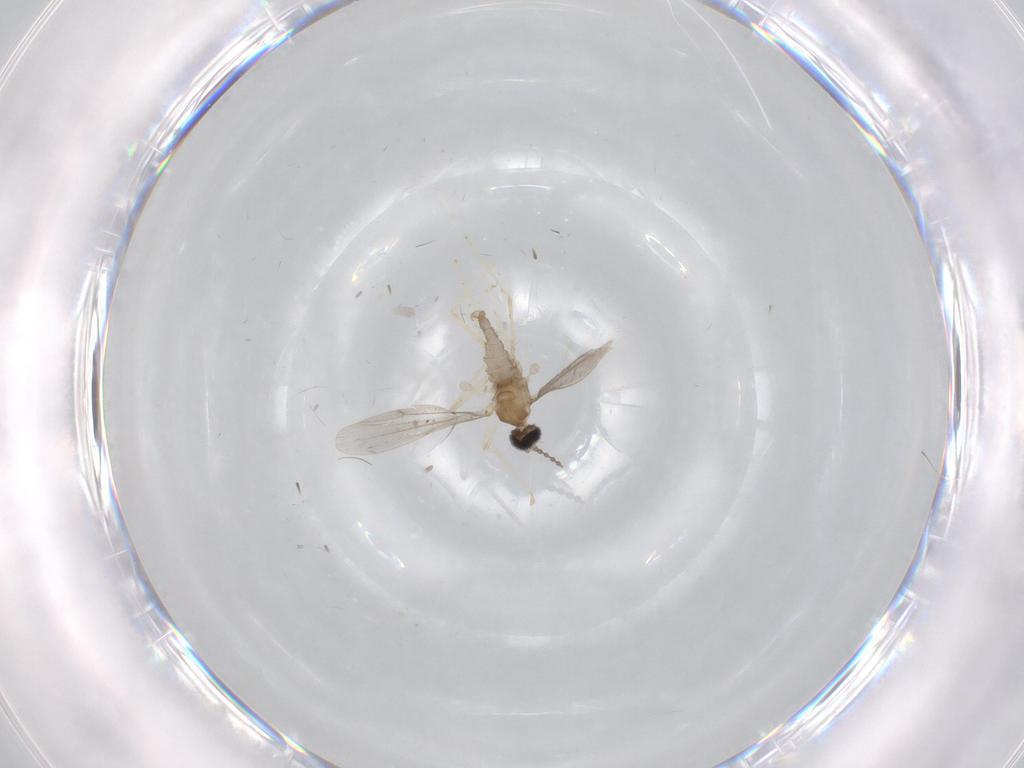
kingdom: Animalia
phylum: Arthropoda
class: Insecta
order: Diptera
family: Cecidomyiidae
